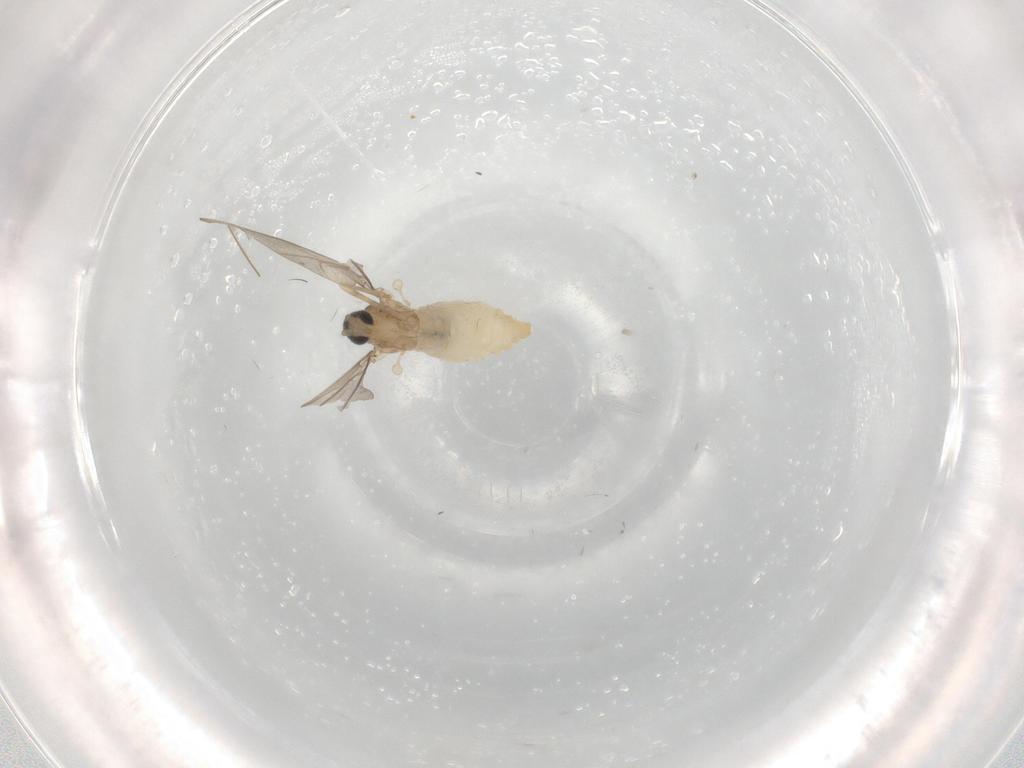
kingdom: Animalia
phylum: Arthropoda
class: Insecta
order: Diptera
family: Cecidomyiidae
